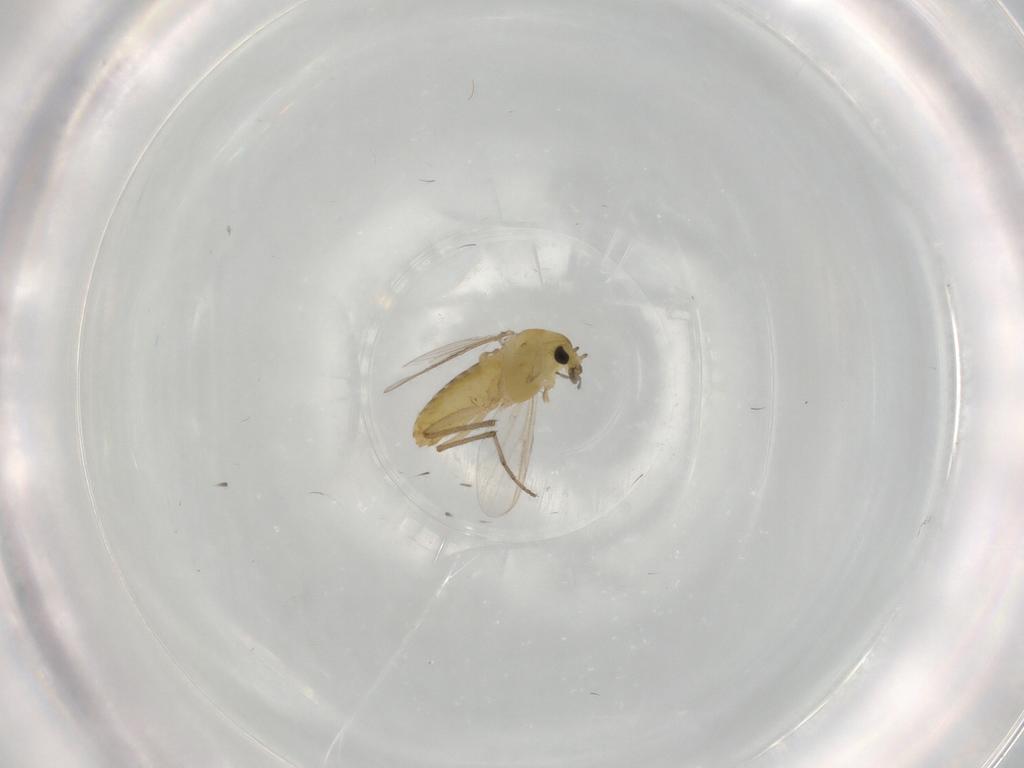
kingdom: Animalia
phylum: Arthropoda
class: Insecta
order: Diptera
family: Chironomidae
